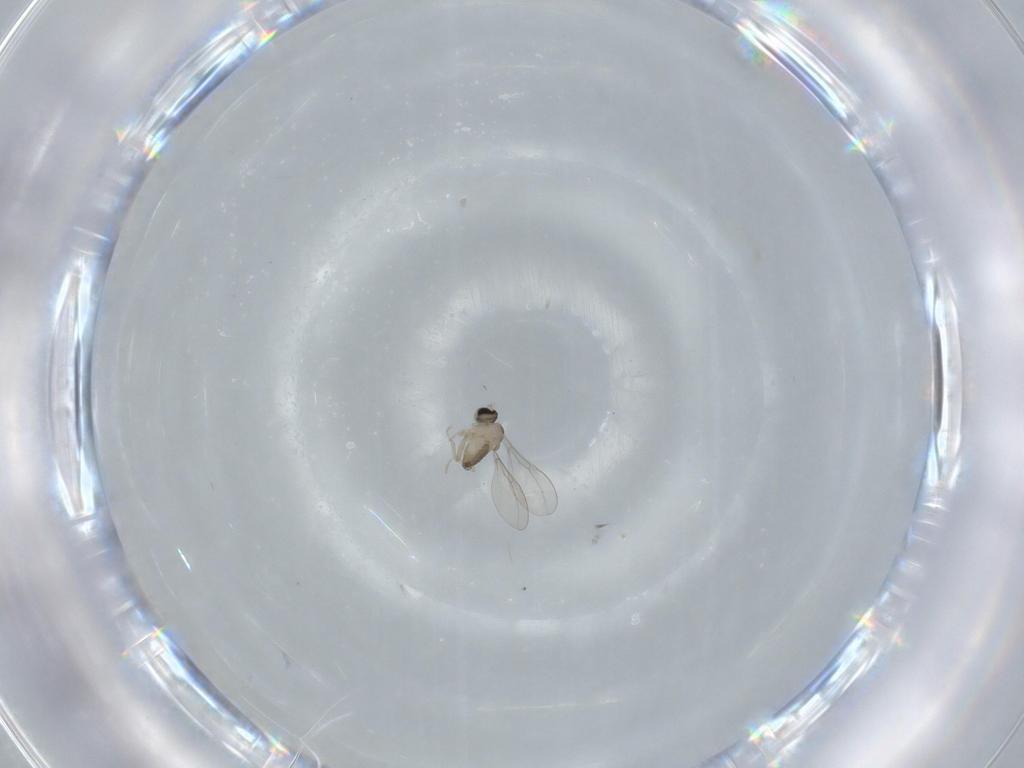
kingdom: Animalia
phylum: Arthropoda
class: Insecta
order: Diptera
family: Cecidomyiidae
